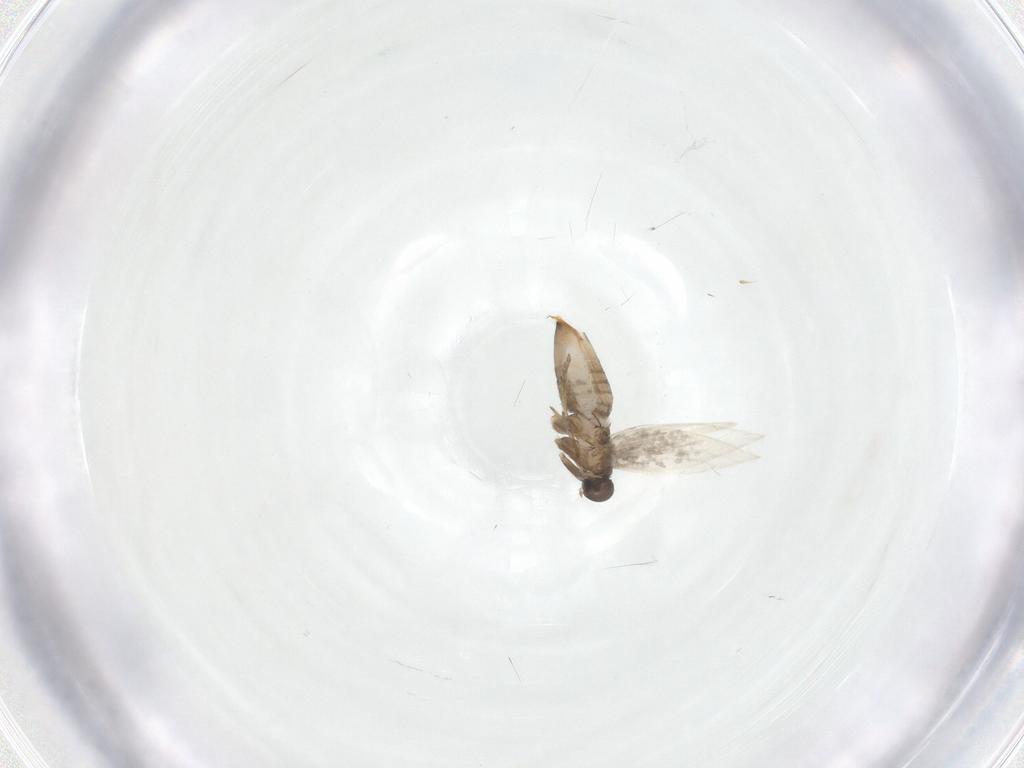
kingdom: Animalia
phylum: Arthropoda
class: Insecta
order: Lepidoptera
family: Heliozelidae
